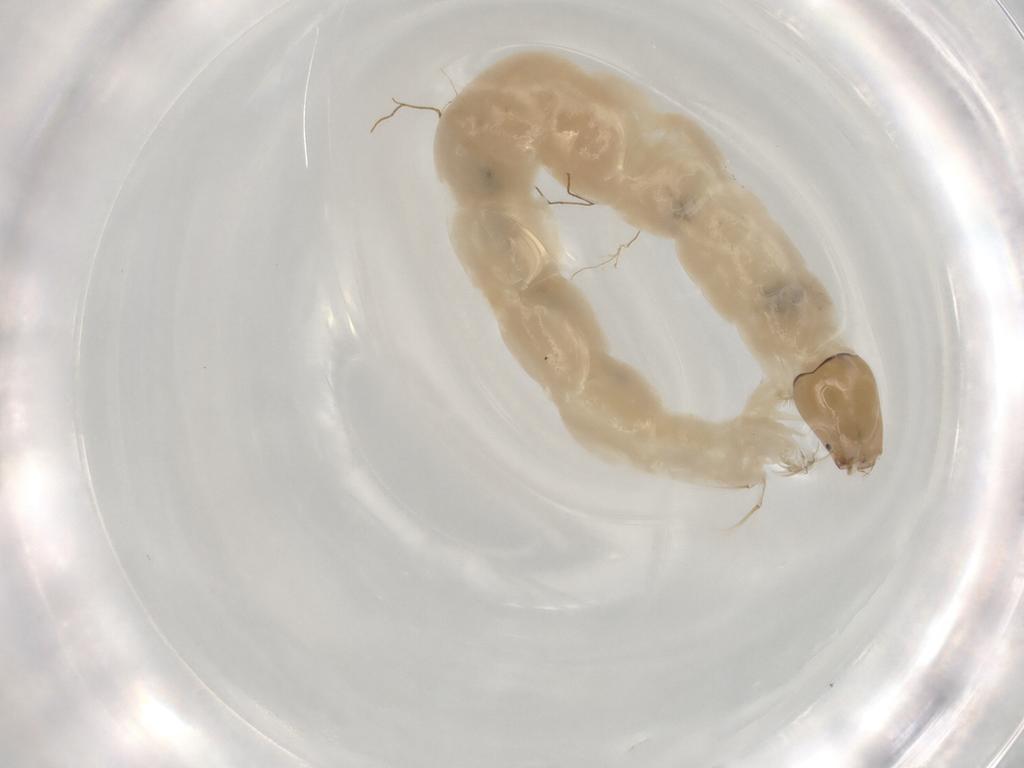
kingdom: Animalia
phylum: Arthropoda
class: Insecta
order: Diptera
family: Chironomidae
